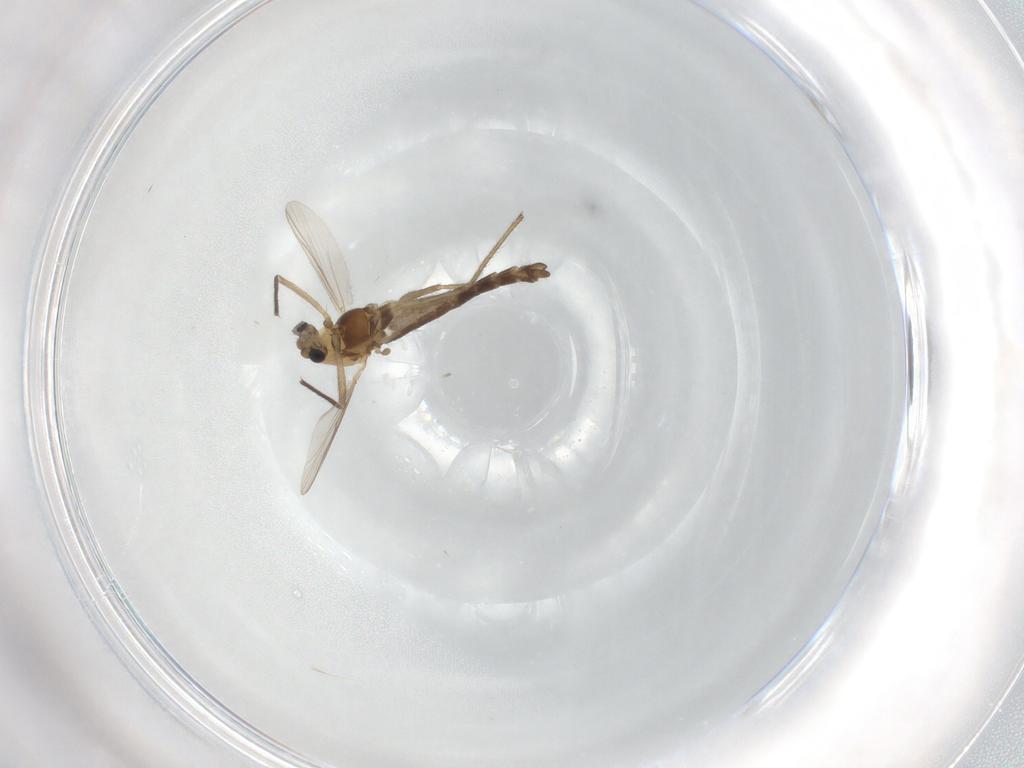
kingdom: Animalia
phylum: Arthropoda
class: Insecta
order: Diptera
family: Chironomidae
